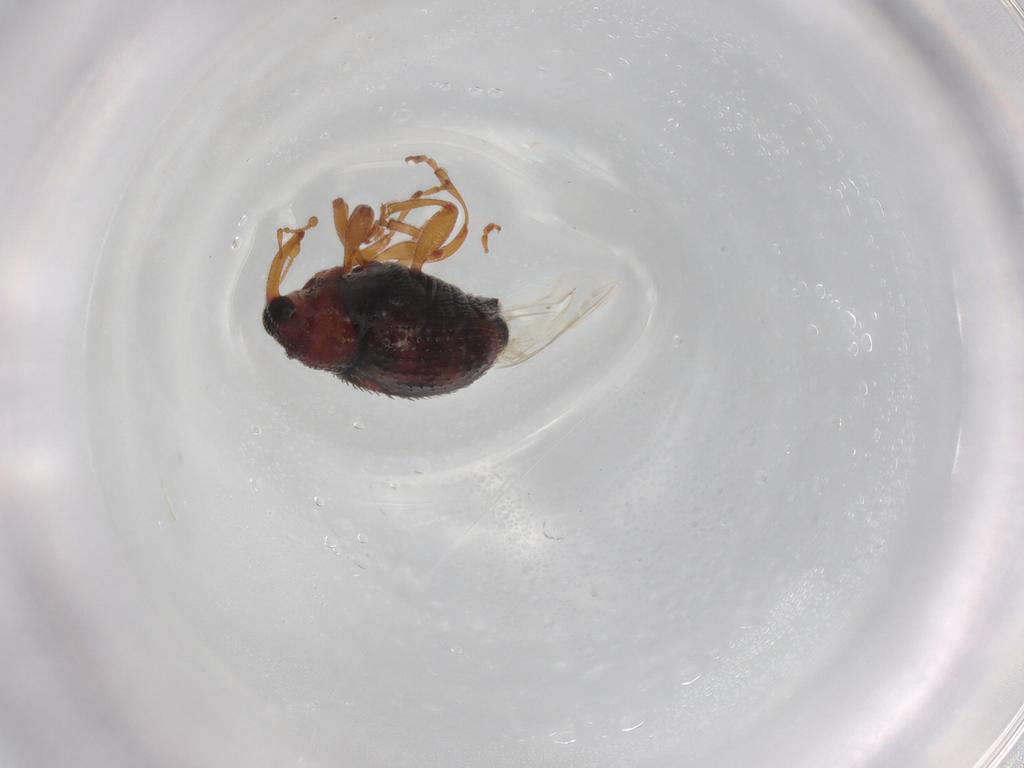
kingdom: Animalia
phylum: Arthropoda
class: Insecta
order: Coleoptera
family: Curculionidae
